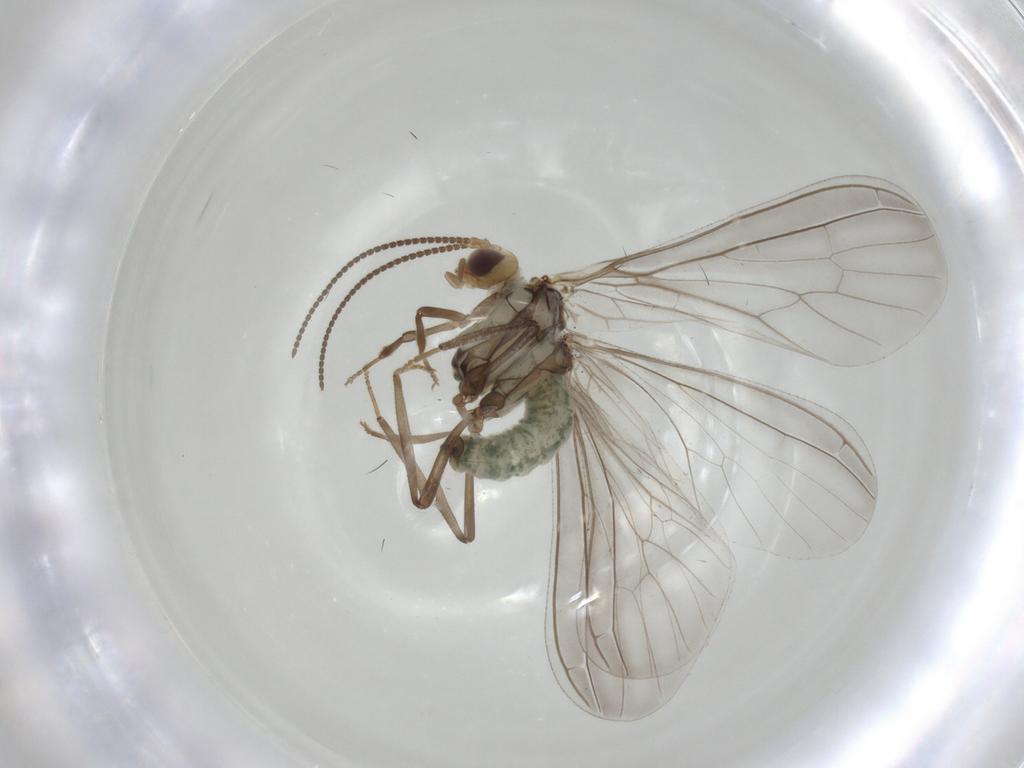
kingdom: Animalia
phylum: Arthropoda
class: Insecta
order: Neuroptera
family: Coniopterygidae
